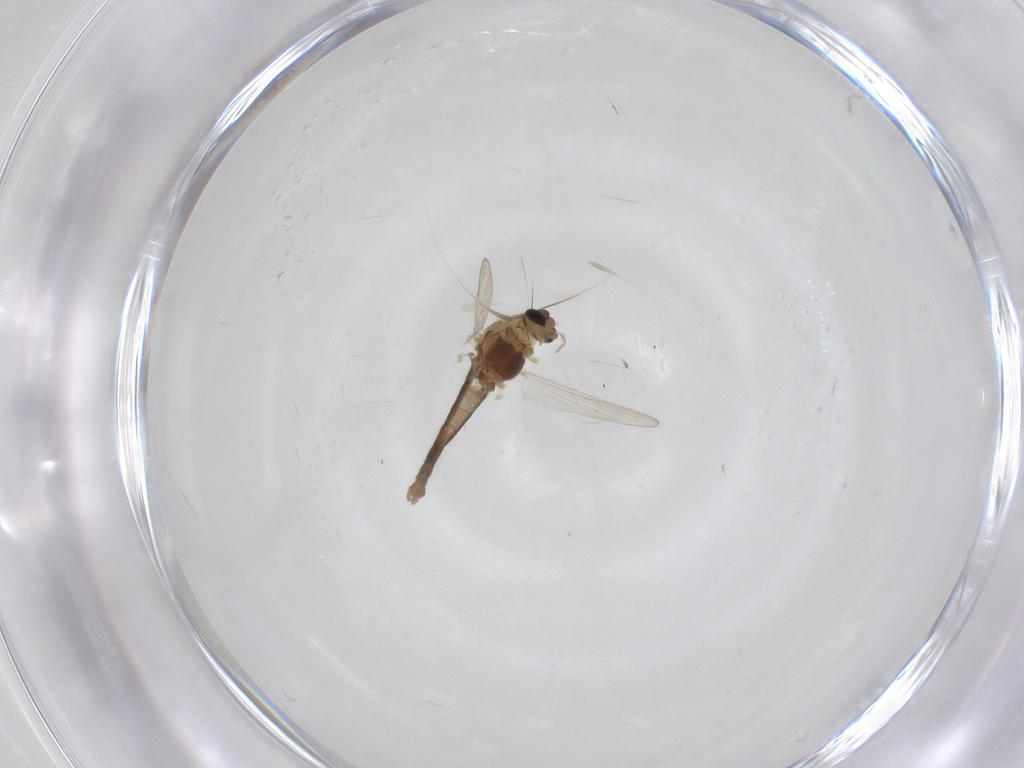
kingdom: Animalia
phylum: Arthropoda
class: Insecta
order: Diptera
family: Chironomidae
